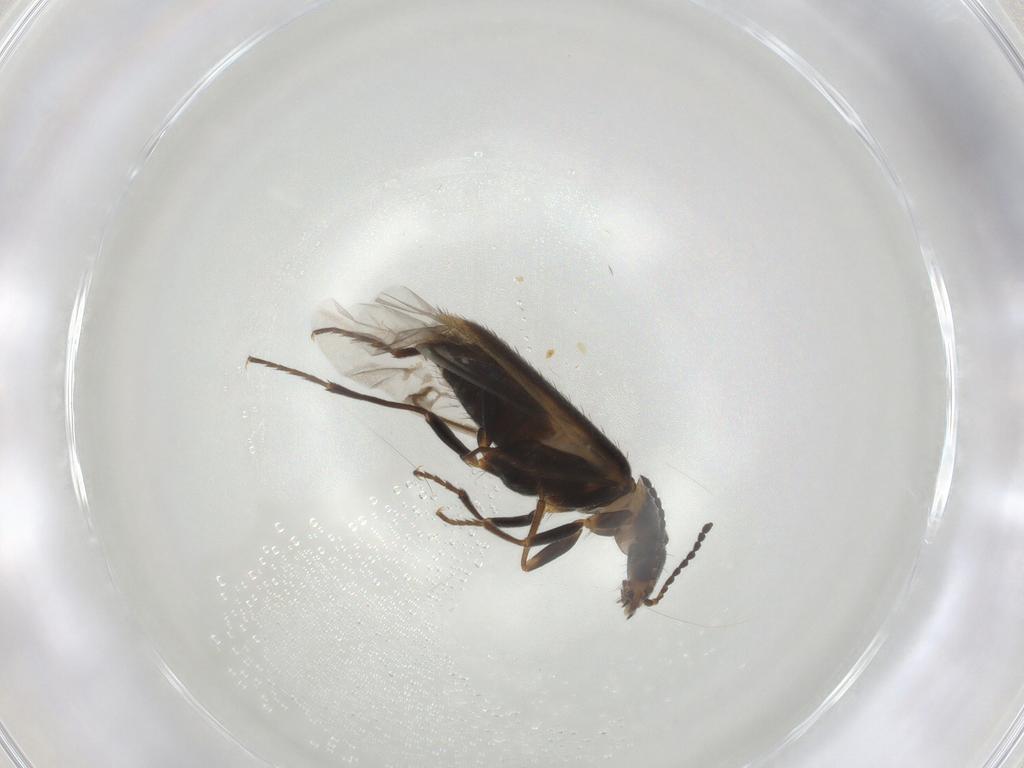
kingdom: Animalia
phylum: Arthropoda
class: Insecta
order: Coleoptera
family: Melyridae
